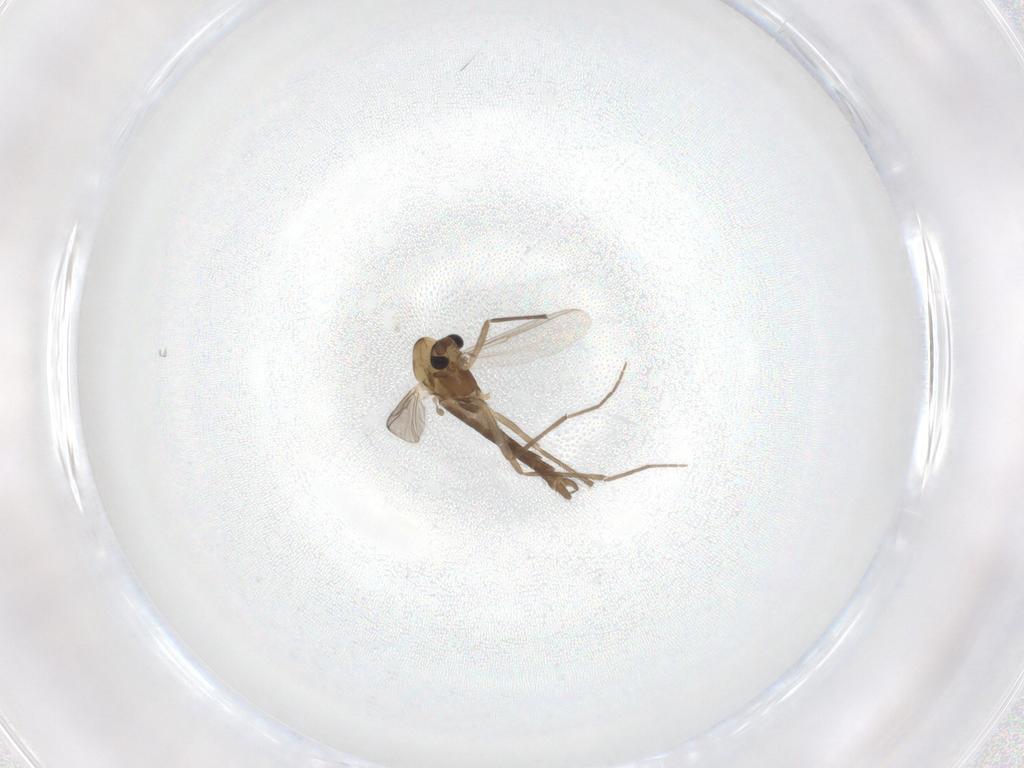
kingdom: Animalia
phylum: Arthropoda
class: Insecta
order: Diptera
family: Chironomidae
